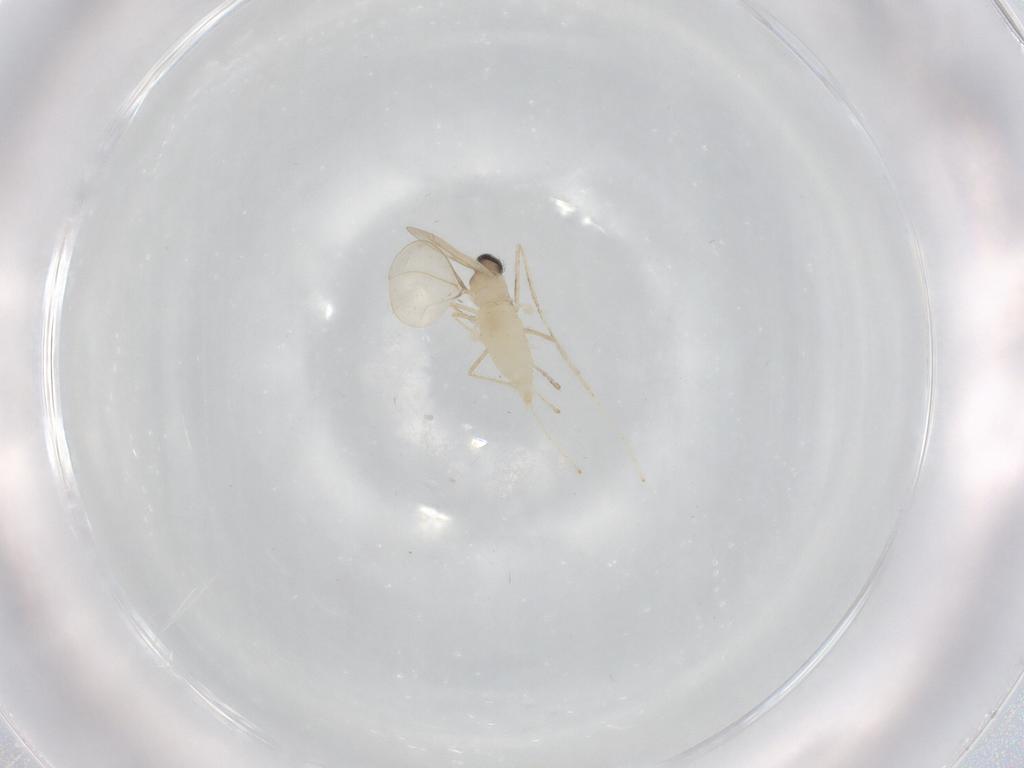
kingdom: Animalia
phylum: Arthropoda
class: Insecta
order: Diptera
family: Cecidomyiidae
